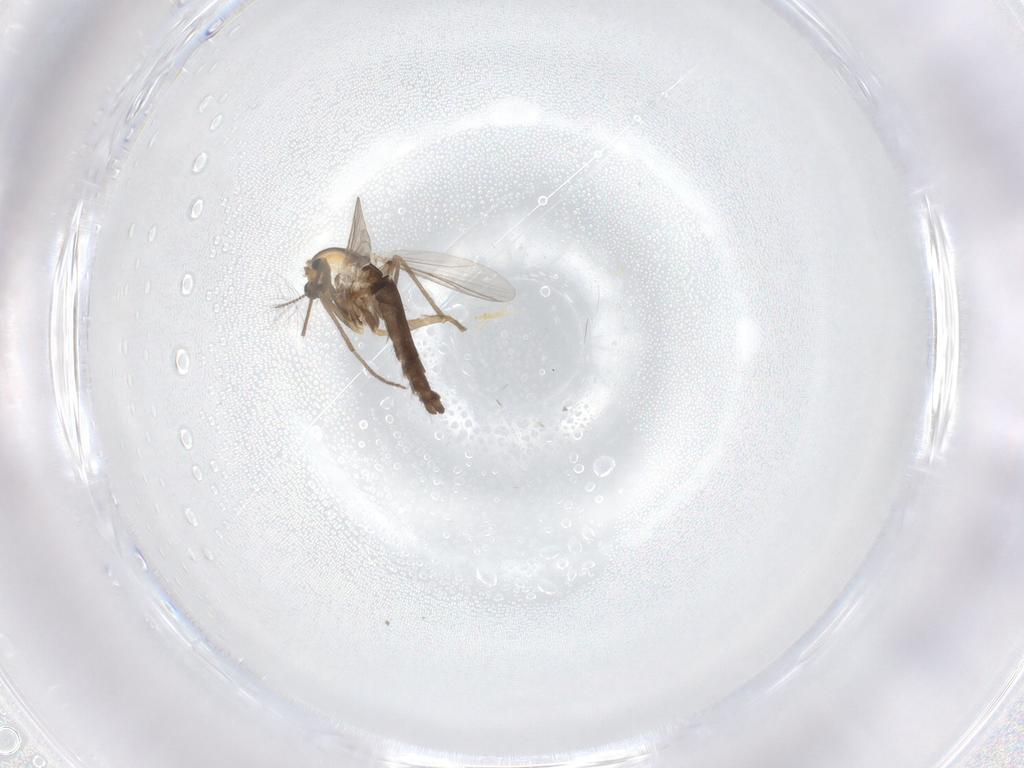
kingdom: Animalia
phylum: Arthropoda
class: Insecta
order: Diptera
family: Chironomidae
